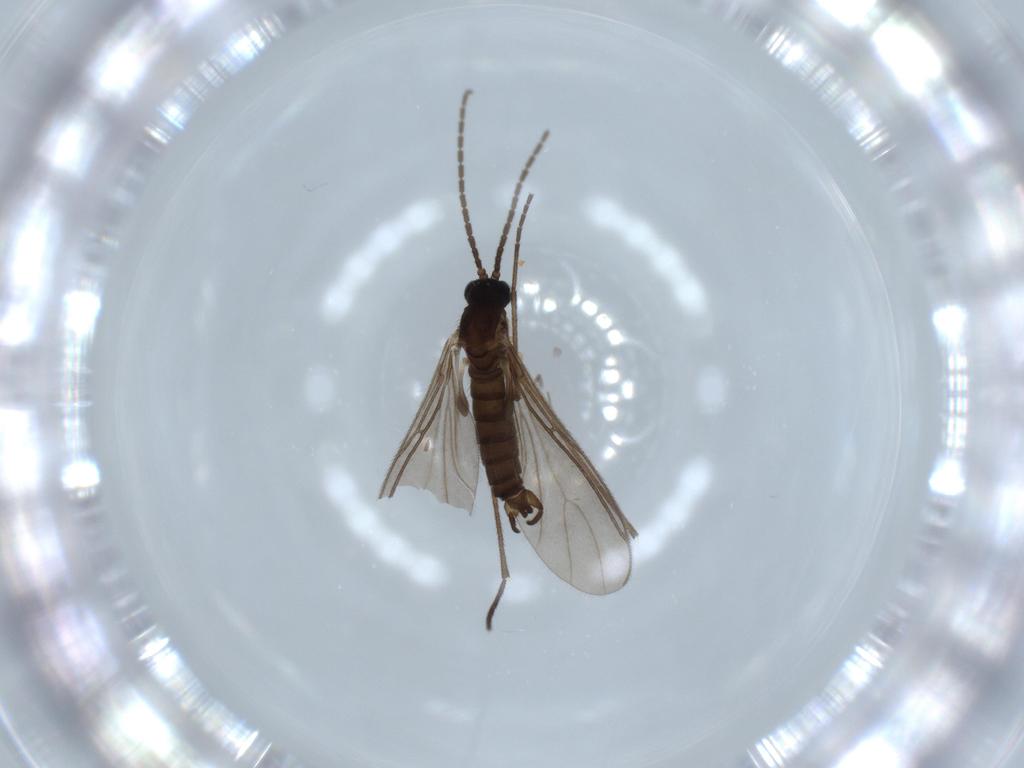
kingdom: Animalia
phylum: Arthropoda
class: Insecta
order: Diptera
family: Sciaridae
